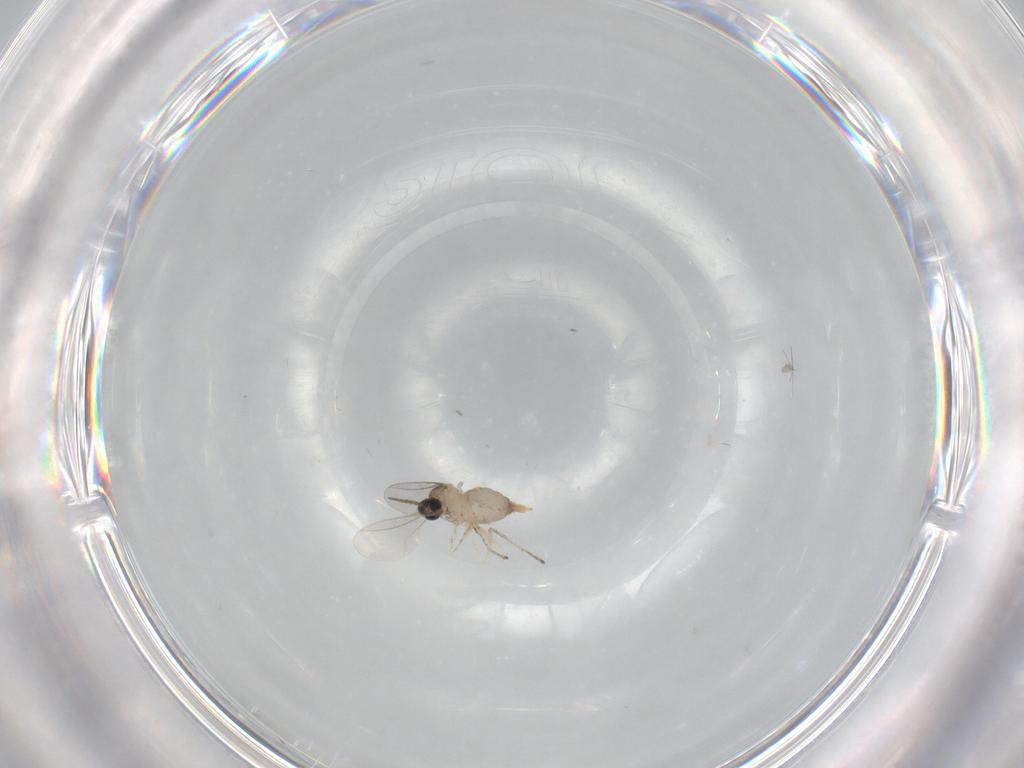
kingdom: Animalia
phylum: Arthropoda
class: Insecta
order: Diptera
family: Cecidomyiidae
